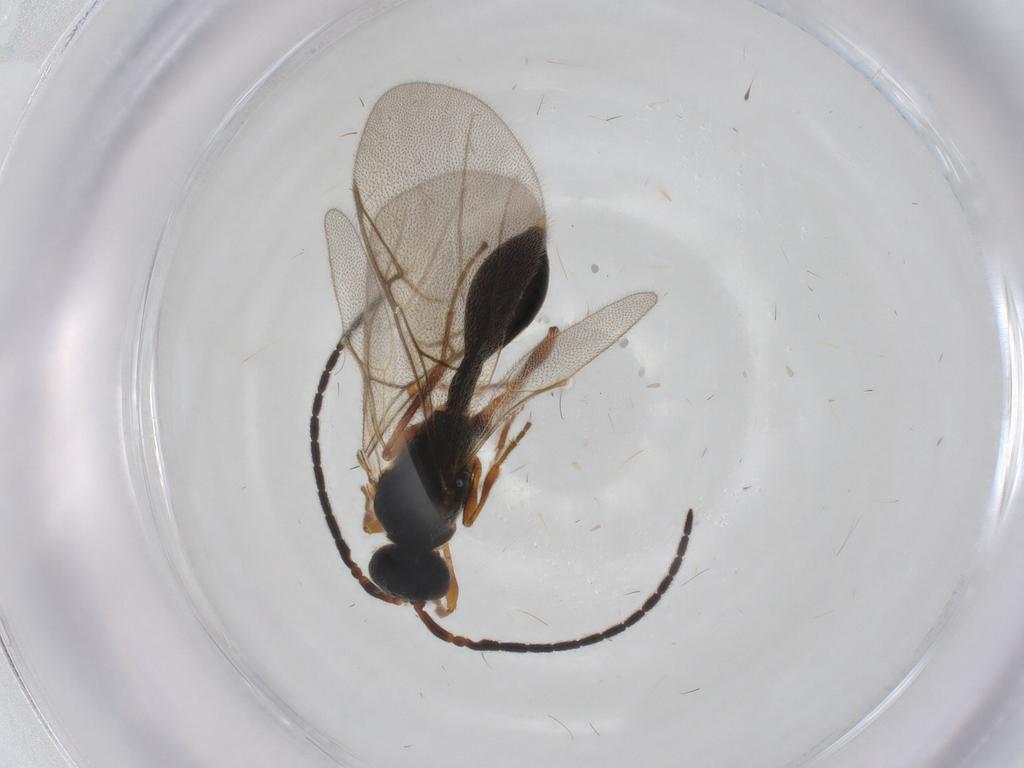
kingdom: Animalia
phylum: Arthropoda
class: Insecta
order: Hymenoptera
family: Diapriidae
